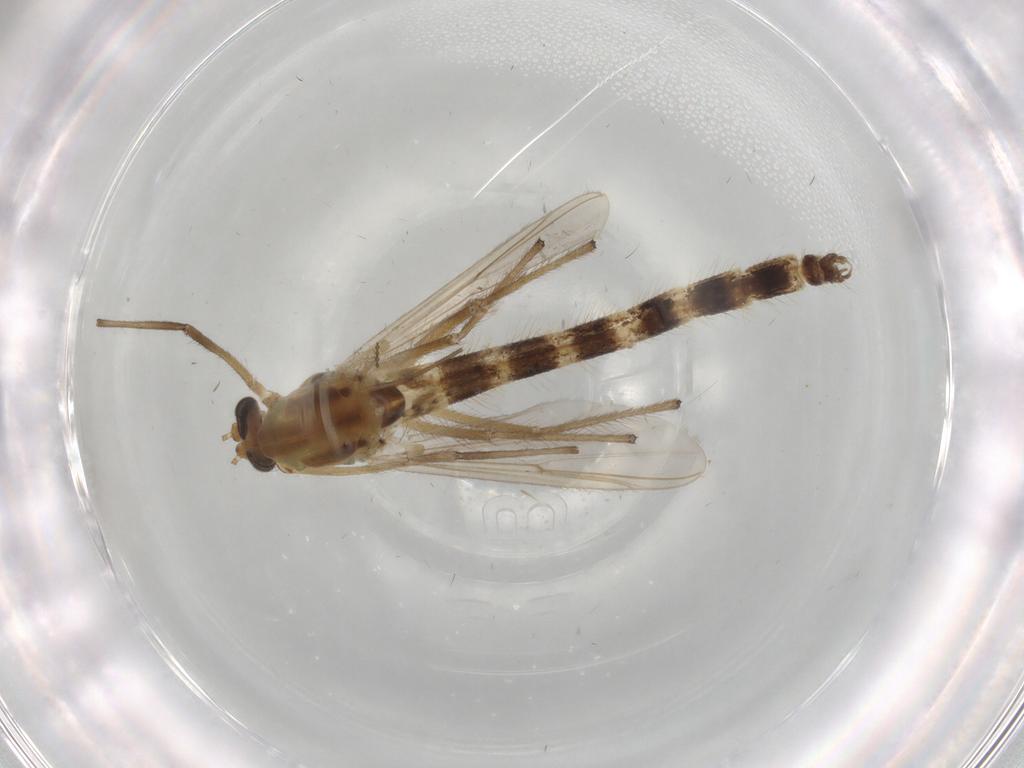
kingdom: Animalia
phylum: Arthropoda
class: Insecta
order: Diptera
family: Chironomidae
